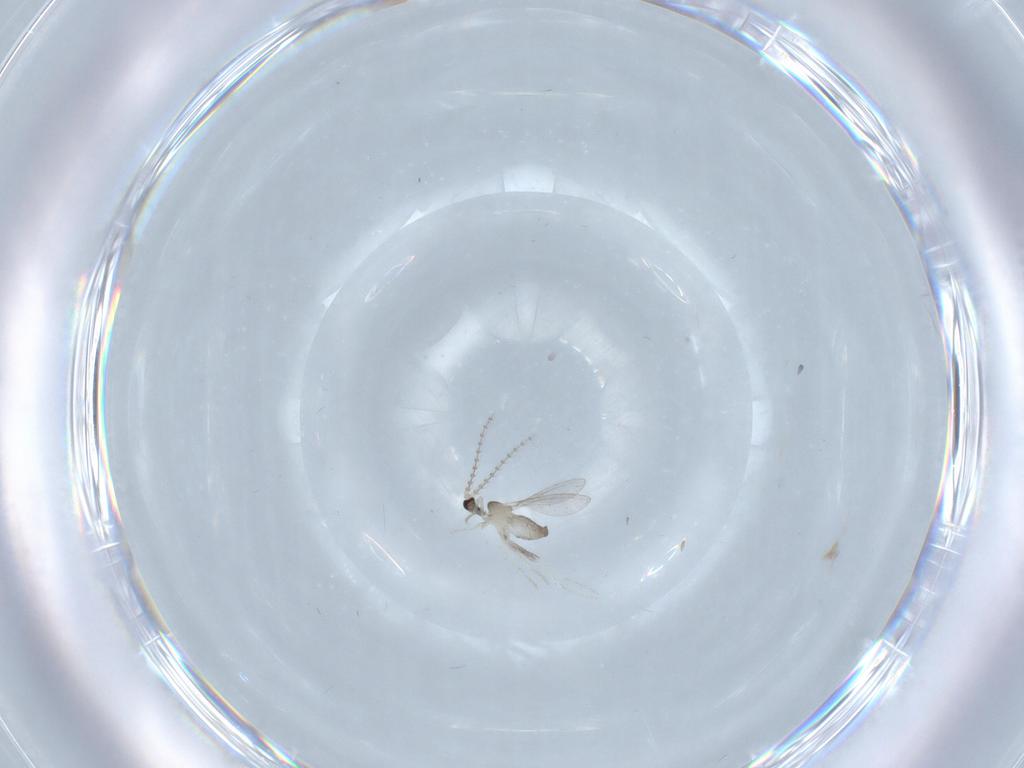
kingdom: Animalia
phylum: Arthropoda
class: Insecta
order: Diptera
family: Cecidomyiidae
